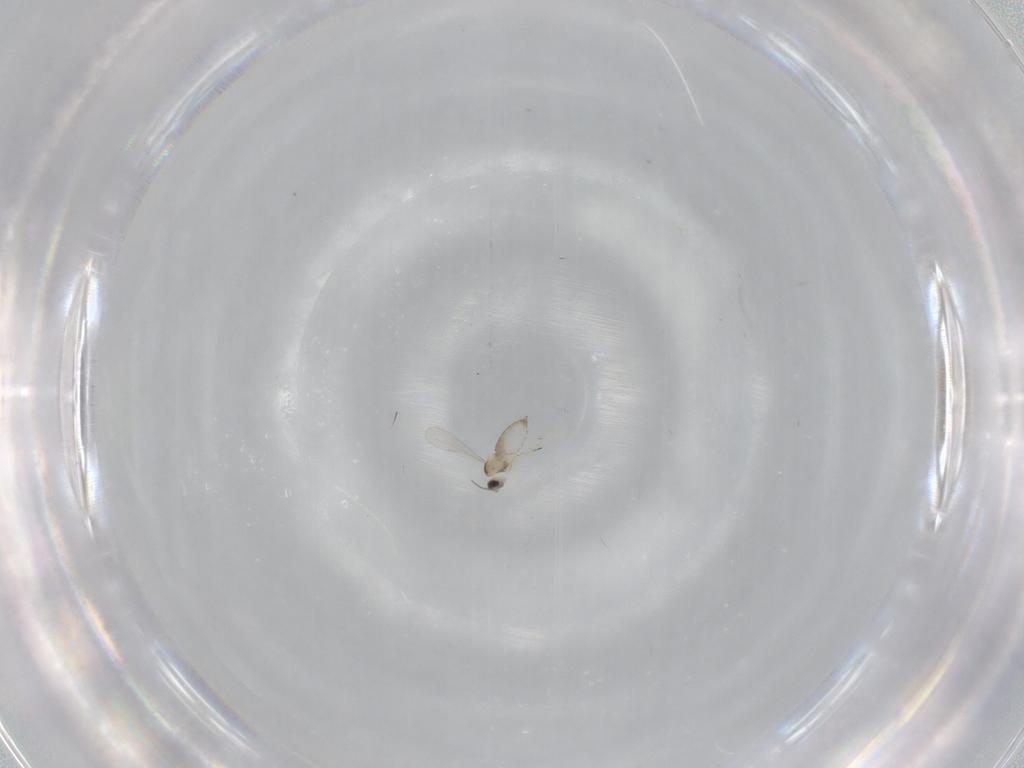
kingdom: Animalia
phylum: Arthropoda
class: Insecta
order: Diptera
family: Cecidomyiidae
